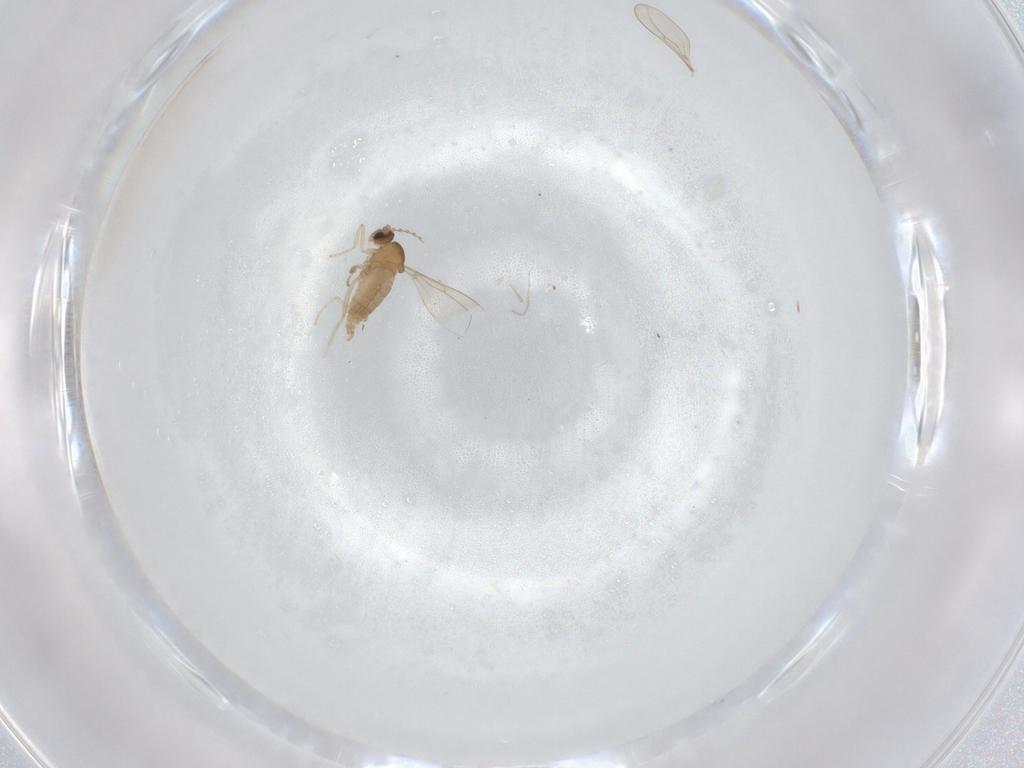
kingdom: Animalia
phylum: Arthropoda
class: Insecta
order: Diptera
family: Cecidomyiidae
